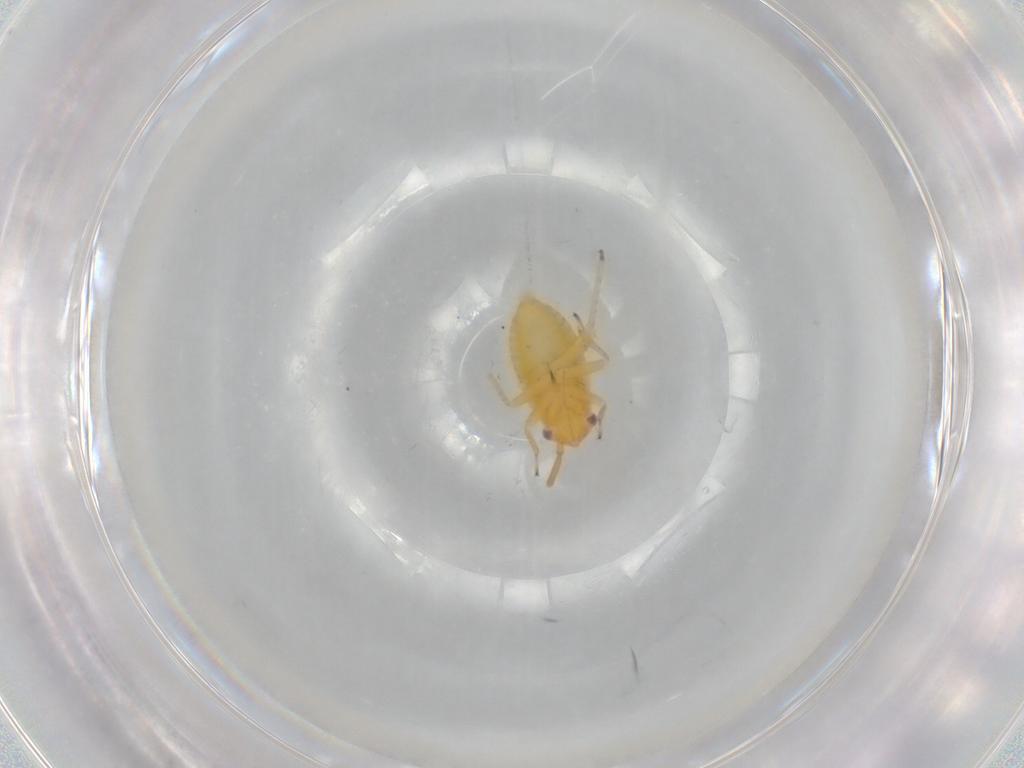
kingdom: Animalia
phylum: Arthropoda
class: Insecta
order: Hemiptera
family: Miridae
